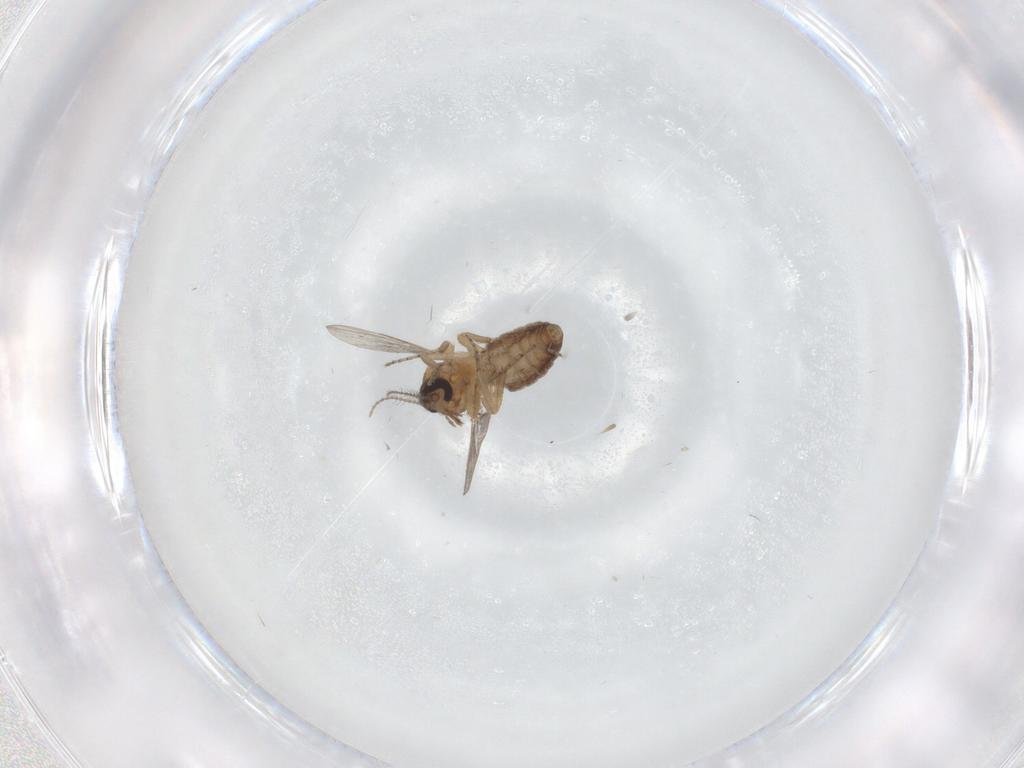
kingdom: Animalia
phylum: Arthropoda
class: Insecta
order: Diptera
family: Ceratopogonidae
